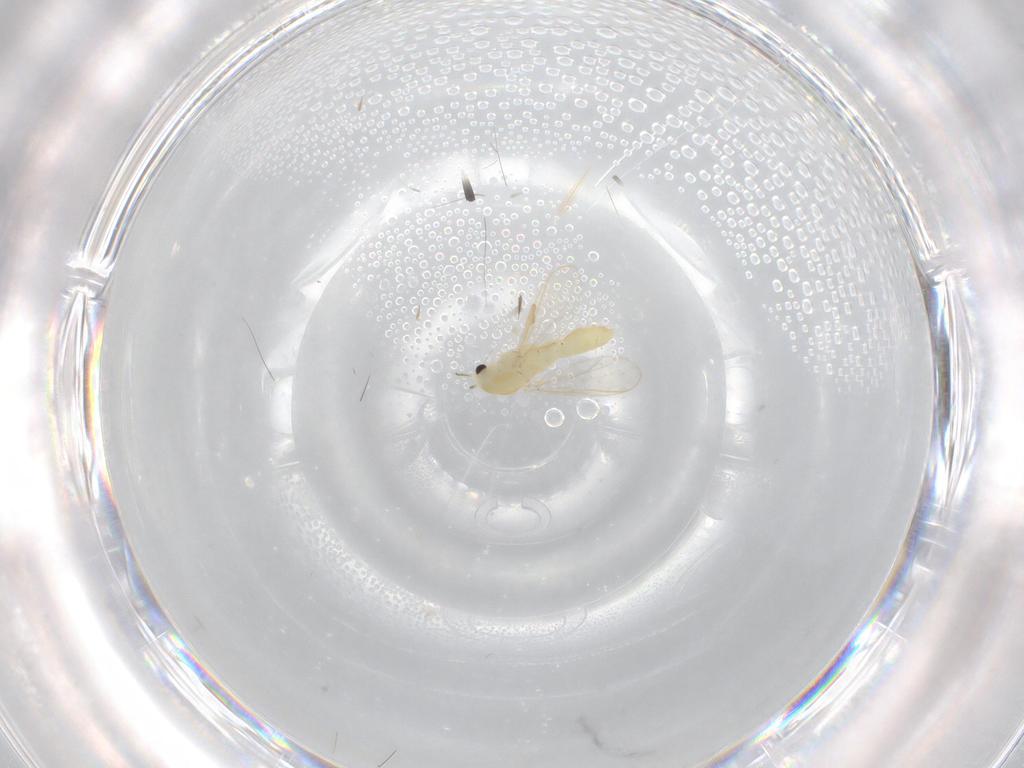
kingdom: Animalia
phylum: Arthropoda
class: Insecta
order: Diptera
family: Chironomidae
